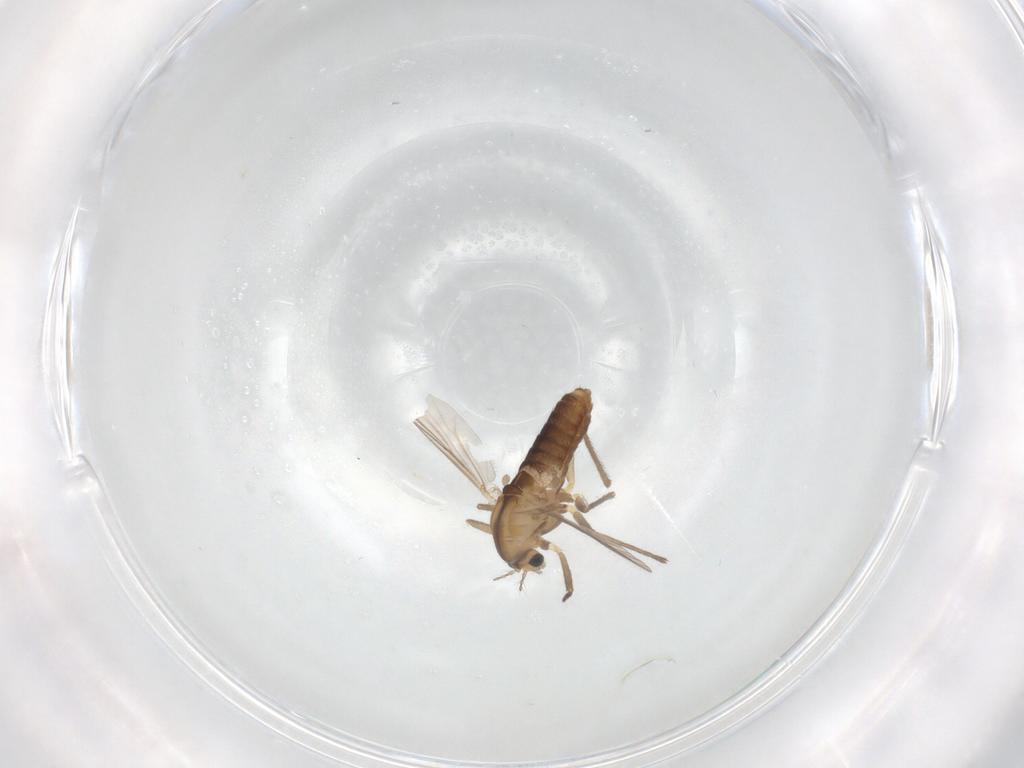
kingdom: Animalia
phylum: Arthropoda
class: Insecta
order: Diptera
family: Chironomidae
